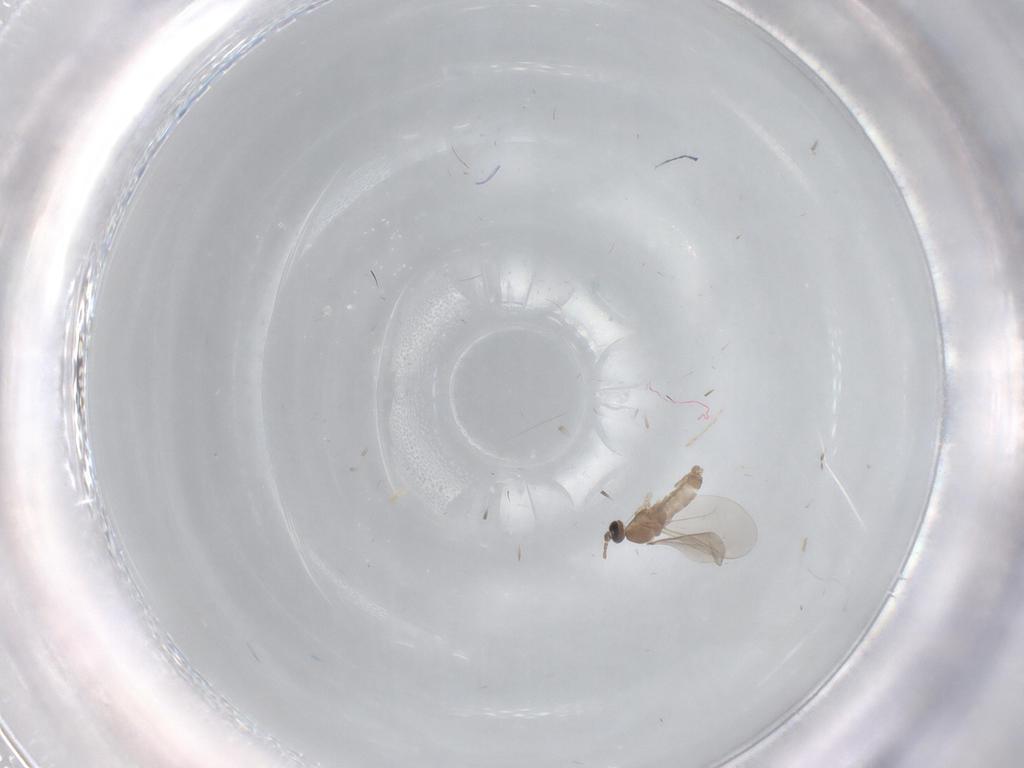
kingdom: Animalia
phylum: Arthropoda
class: Insecta
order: Diptera
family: Cecidomyiidae
